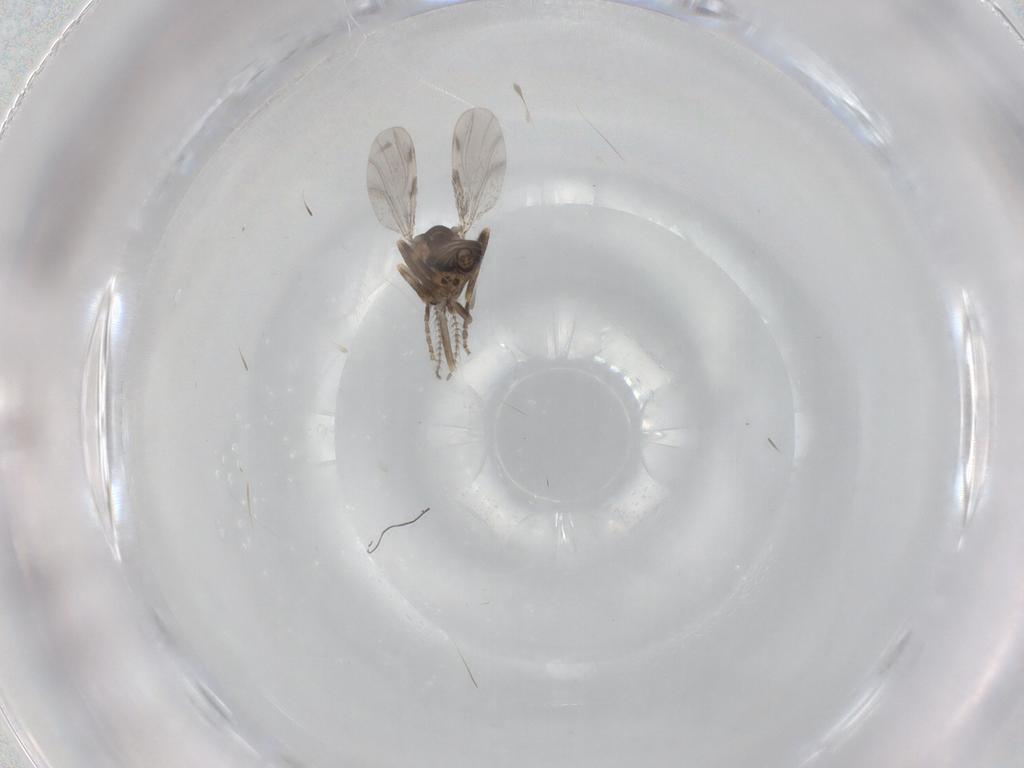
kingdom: Animalia
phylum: Arthropoda
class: Insecta
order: Diptera
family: Ceratopogonidae
